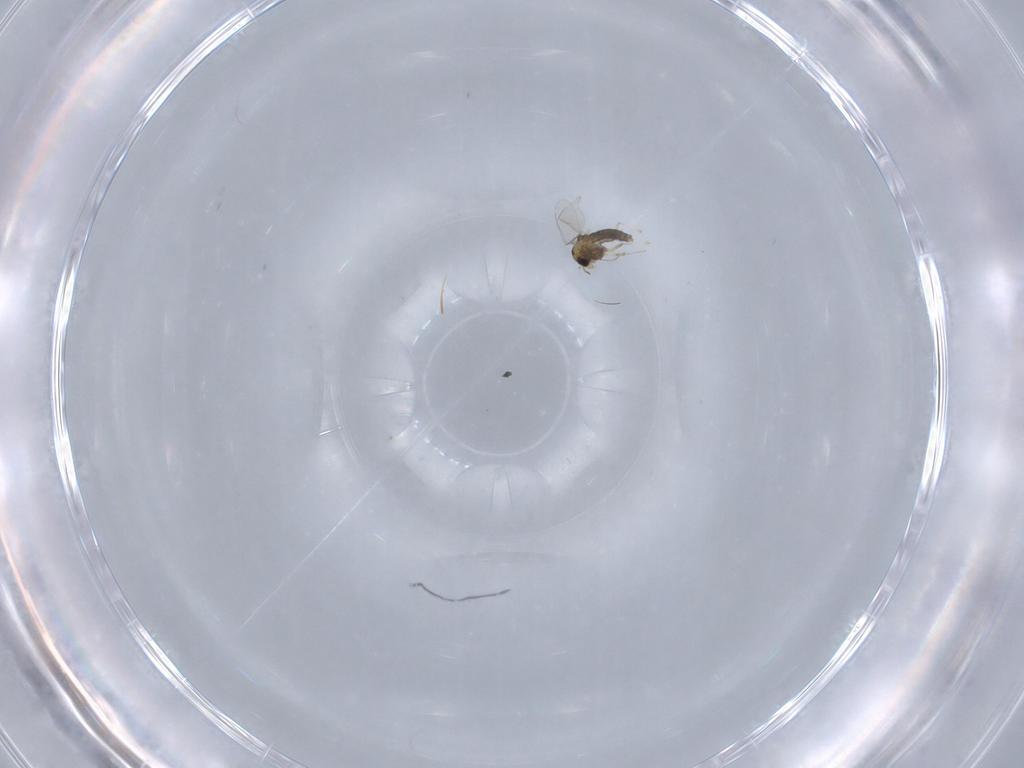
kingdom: Animalia
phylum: Arthropoda
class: Insecta
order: Diptera
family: Chironomidae
